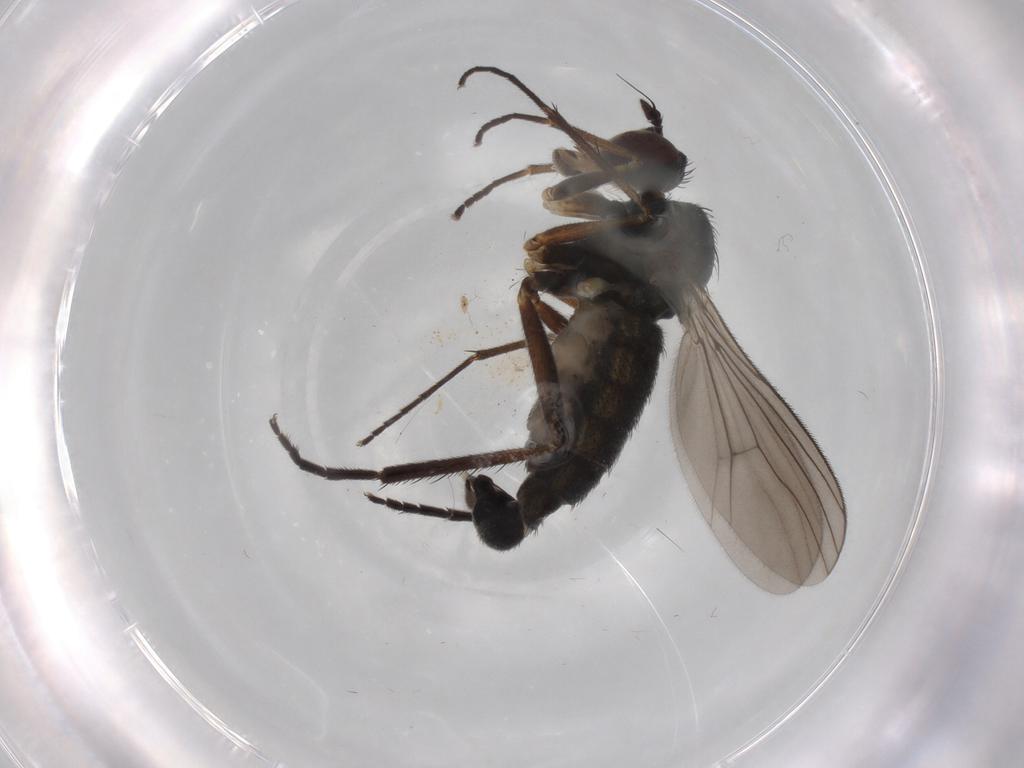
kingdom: Animalia
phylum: Arthropoda
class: Insecta
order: Diptera
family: Dolichopodidae
